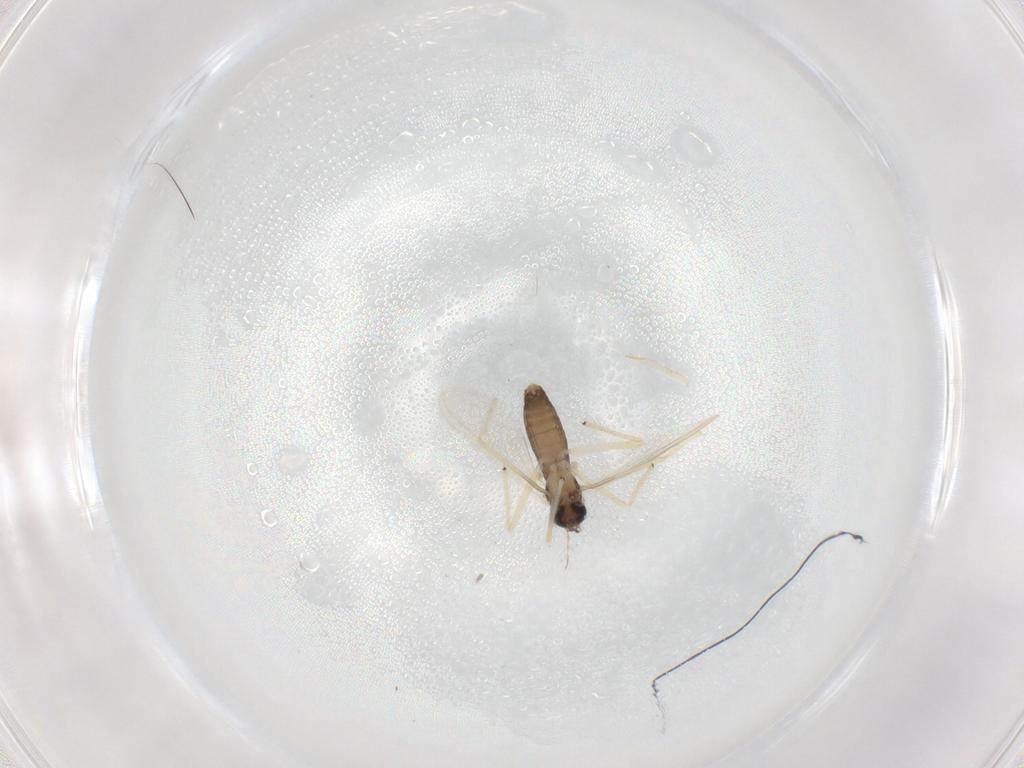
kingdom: Animalia
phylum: Arthropoda
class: Insecta
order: Diptera
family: Chironomidae
